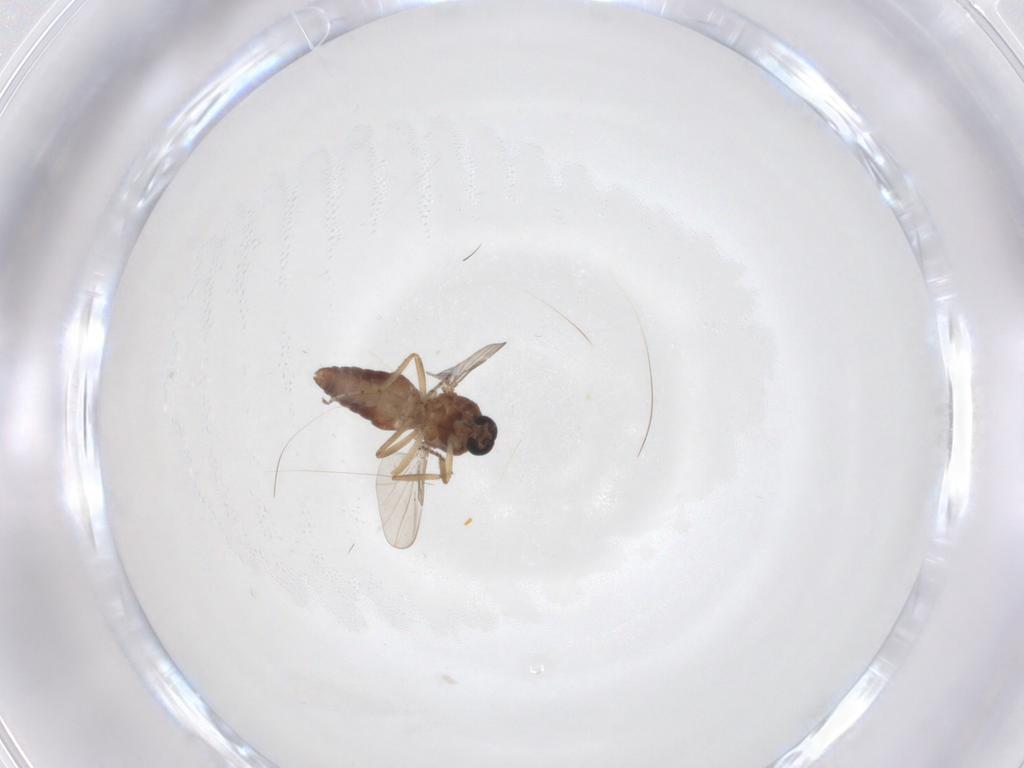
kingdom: Animalia
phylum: Arthropoda
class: Insecta
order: Diptera
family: Ceratopogonidae
